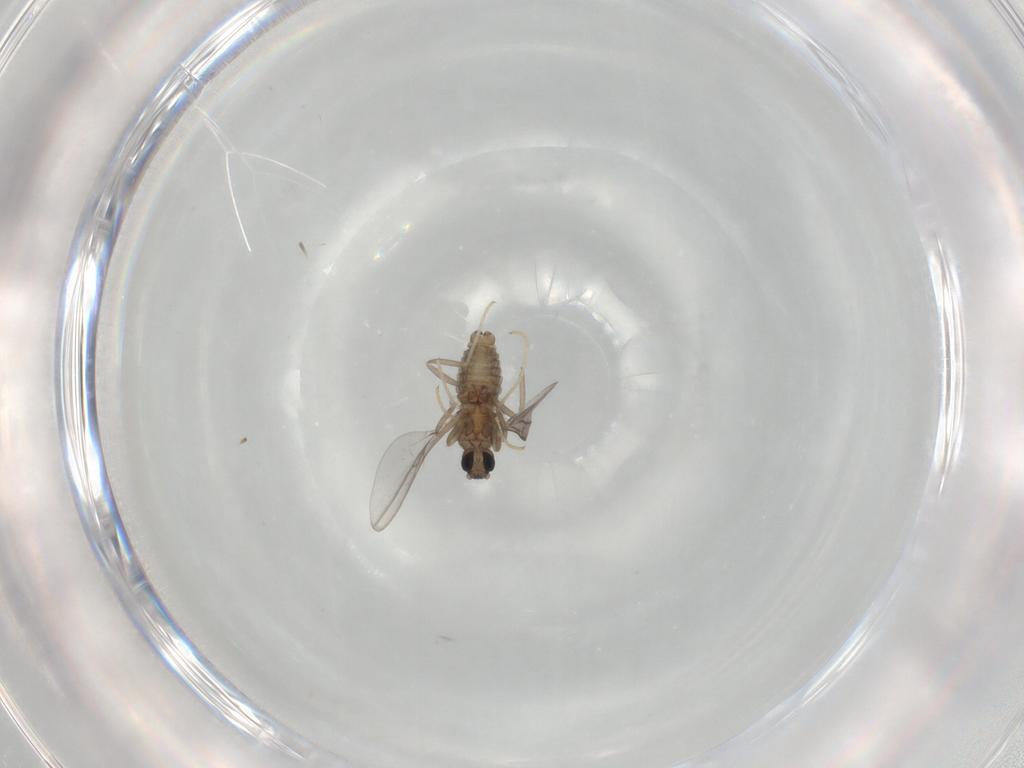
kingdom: Animalia
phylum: Arthropoda
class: Insecta
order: Diptera
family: Cecidomyiidae
